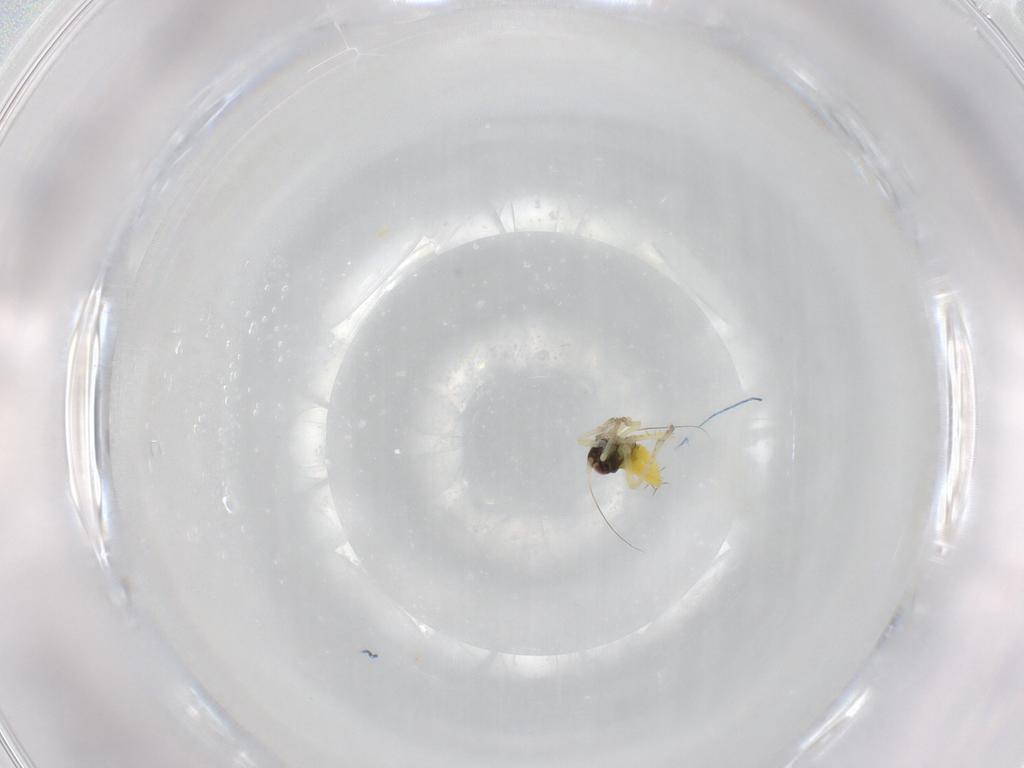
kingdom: Animalia
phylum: Arthropoda
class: Insecta
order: Hemiptera
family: Cicadellidae
